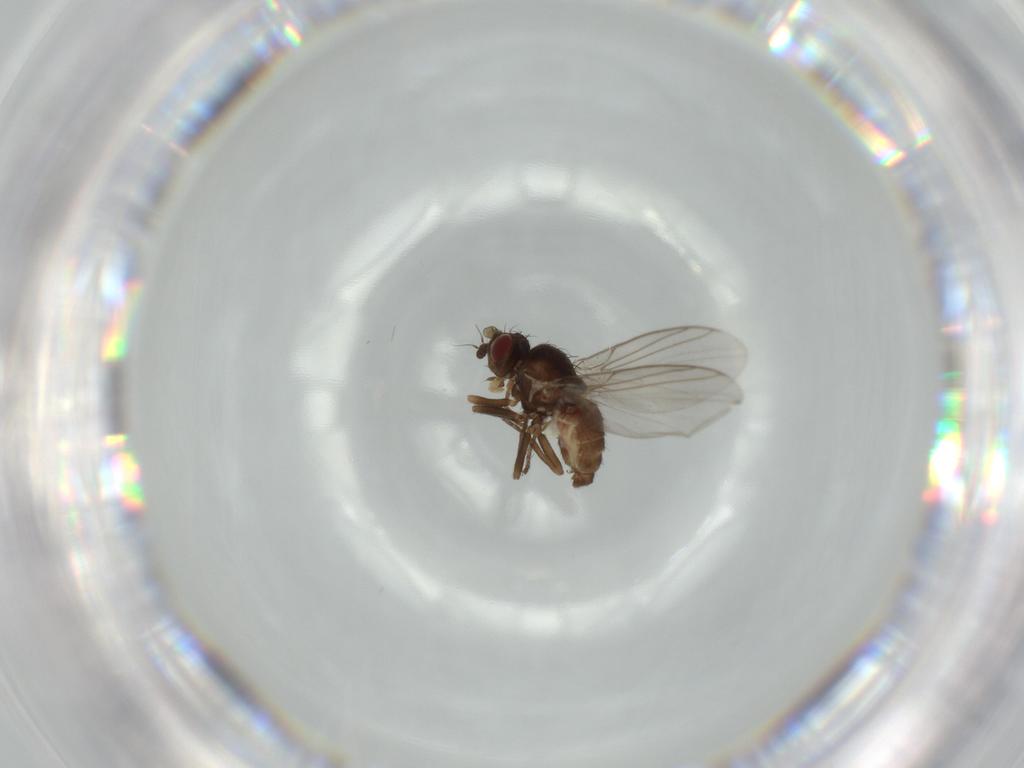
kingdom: Animalia
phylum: Arthropoda
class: Insecta
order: Diptera
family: Agromyzidae
